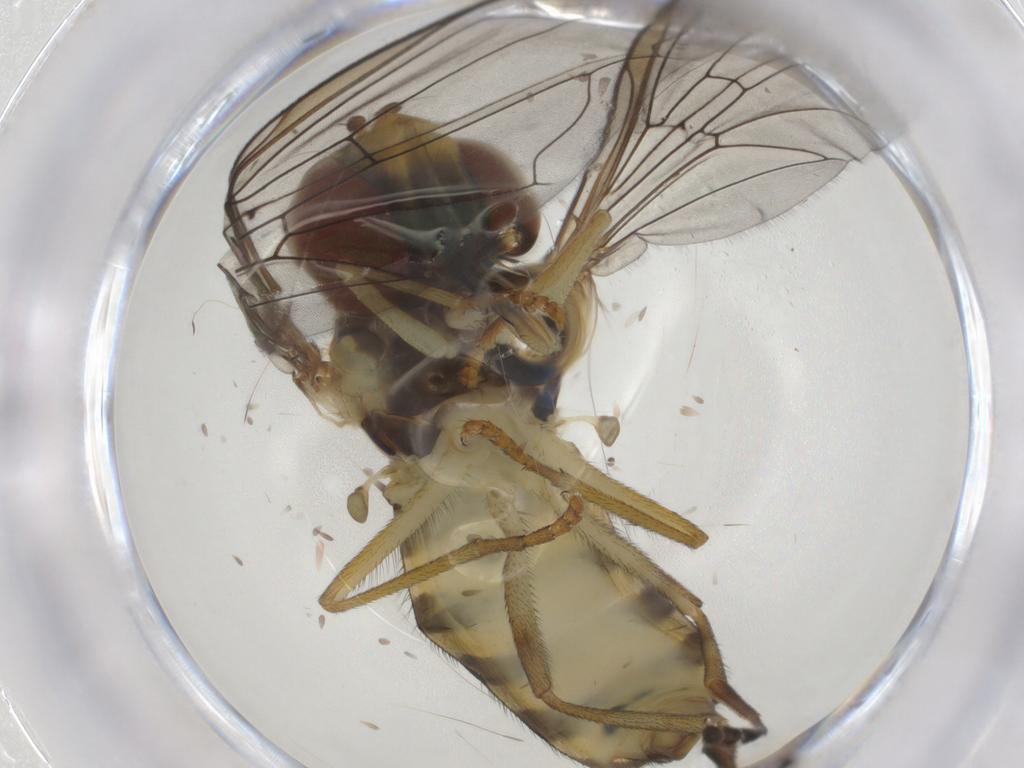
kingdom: Animalia
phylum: Arthropoda
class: Insecta
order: Diptera
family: Syrphidae
